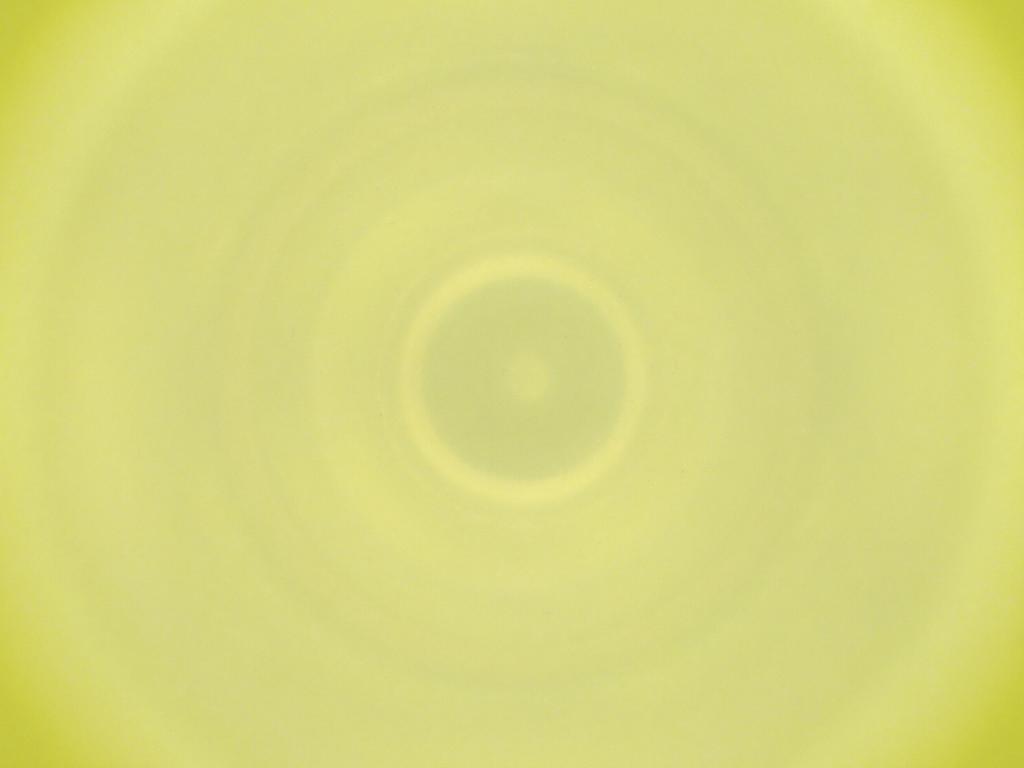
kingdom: Animalia
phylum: Arthropoda
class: Insecta
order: Diptera
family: Cecidomyiidae
